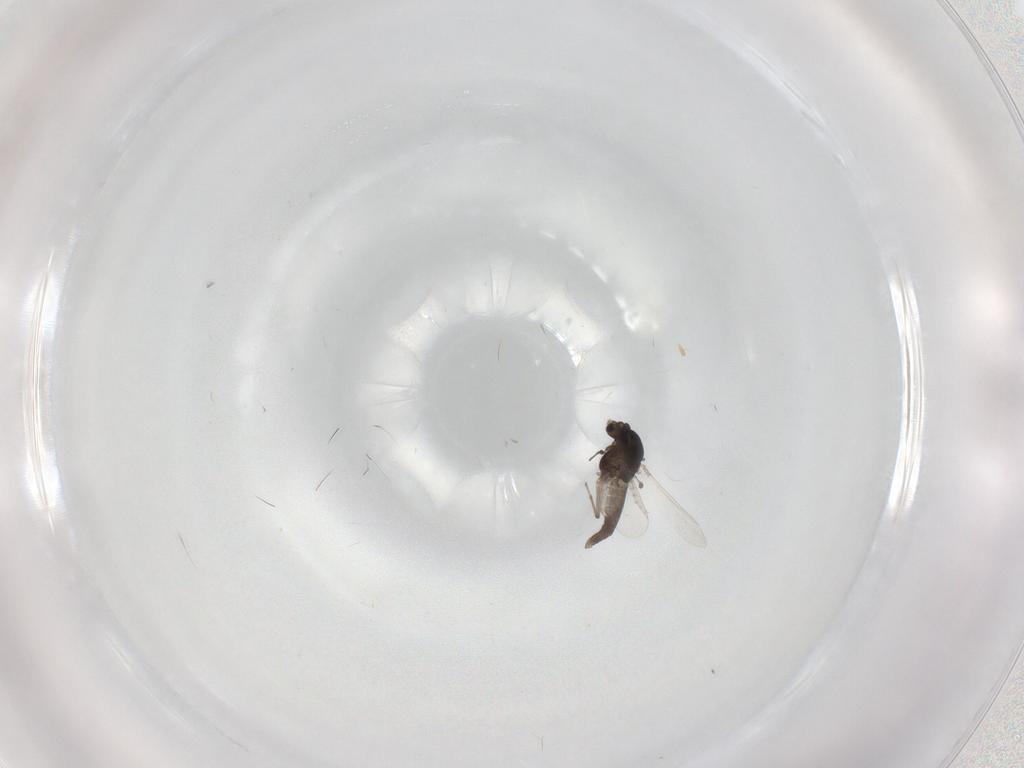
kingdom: Animalia
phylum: Arthropoda
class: Insecta
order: Diptera
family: Chironomidae
